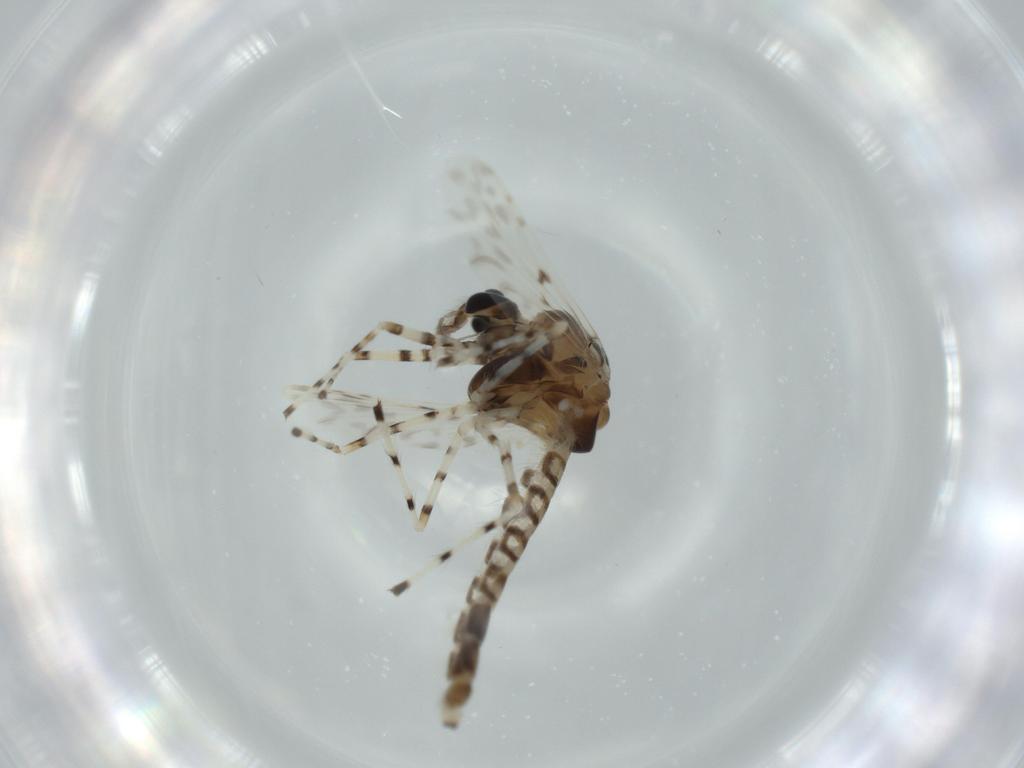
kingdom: Animalia
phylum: Arthropoda
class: Insecta
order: Diptera
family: Chironomidae
